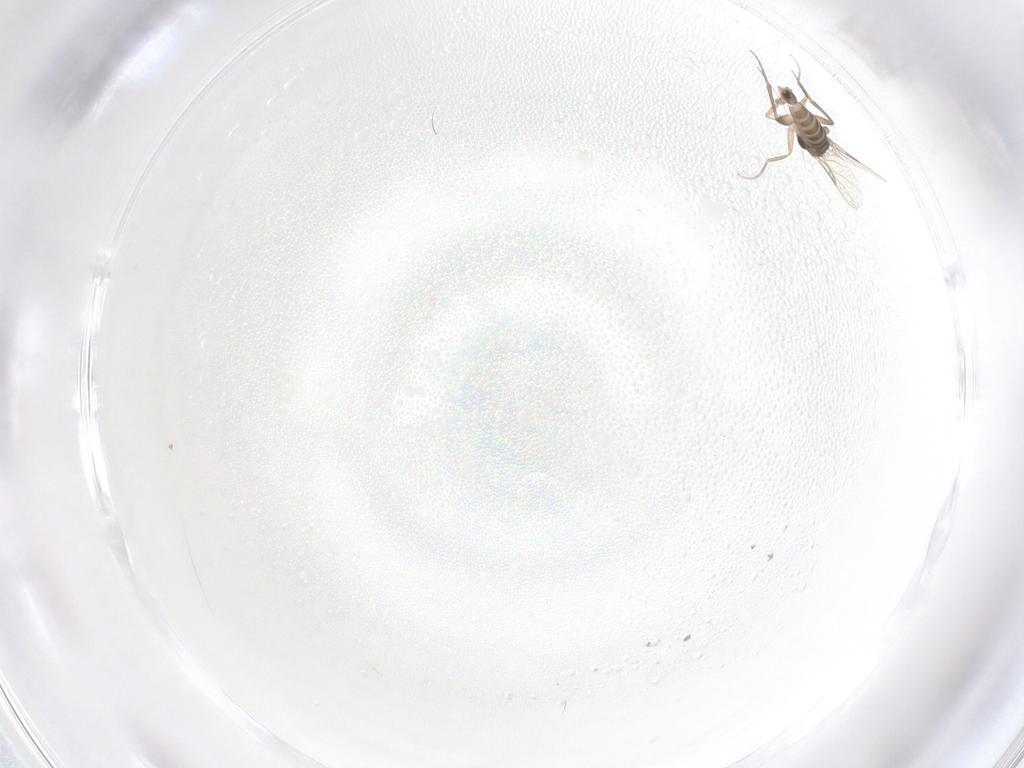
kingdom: Animalia
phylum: Arthropoda
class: Insecta
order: Diptera
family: Phoridae
